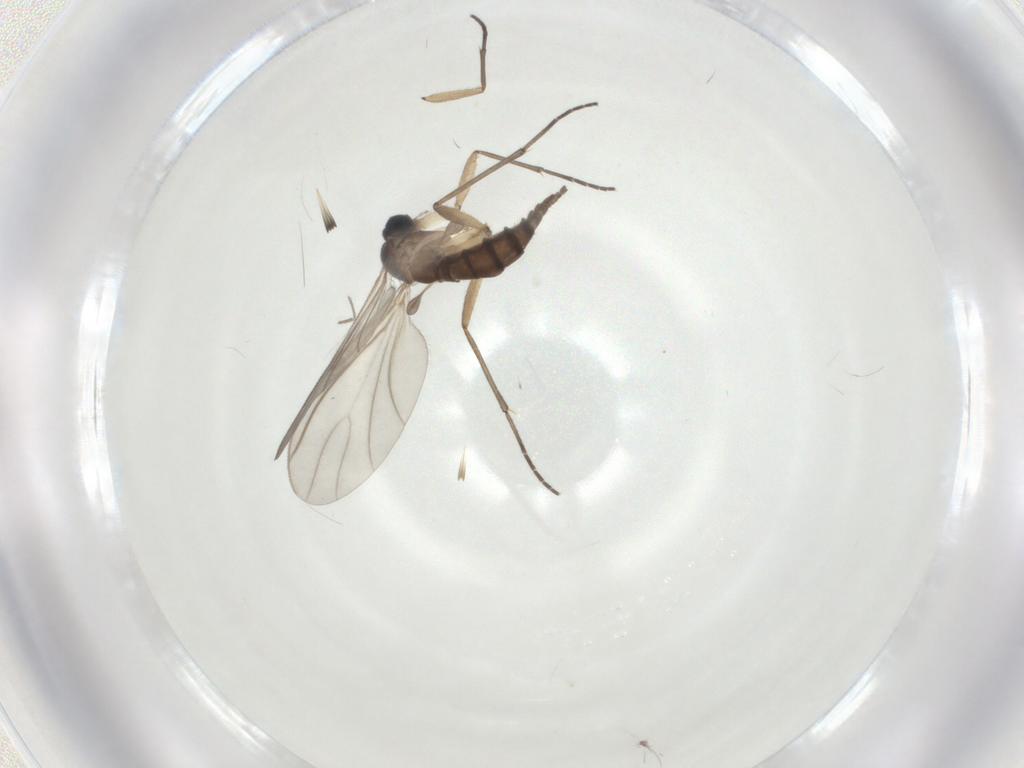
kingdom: Animalia
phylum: Arthropoda
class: Insecta
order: Diptera
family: Sciaridae
